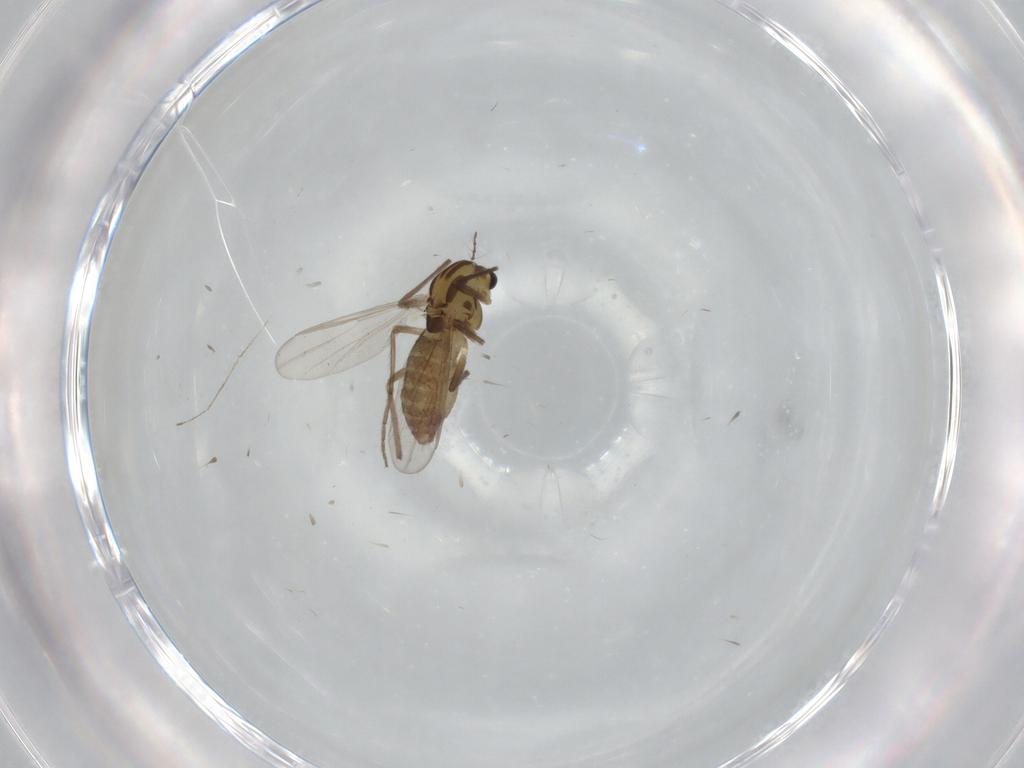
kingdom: Animalia
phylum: Arthropoda
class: Insecta
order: Diptera
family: Chironomidae
